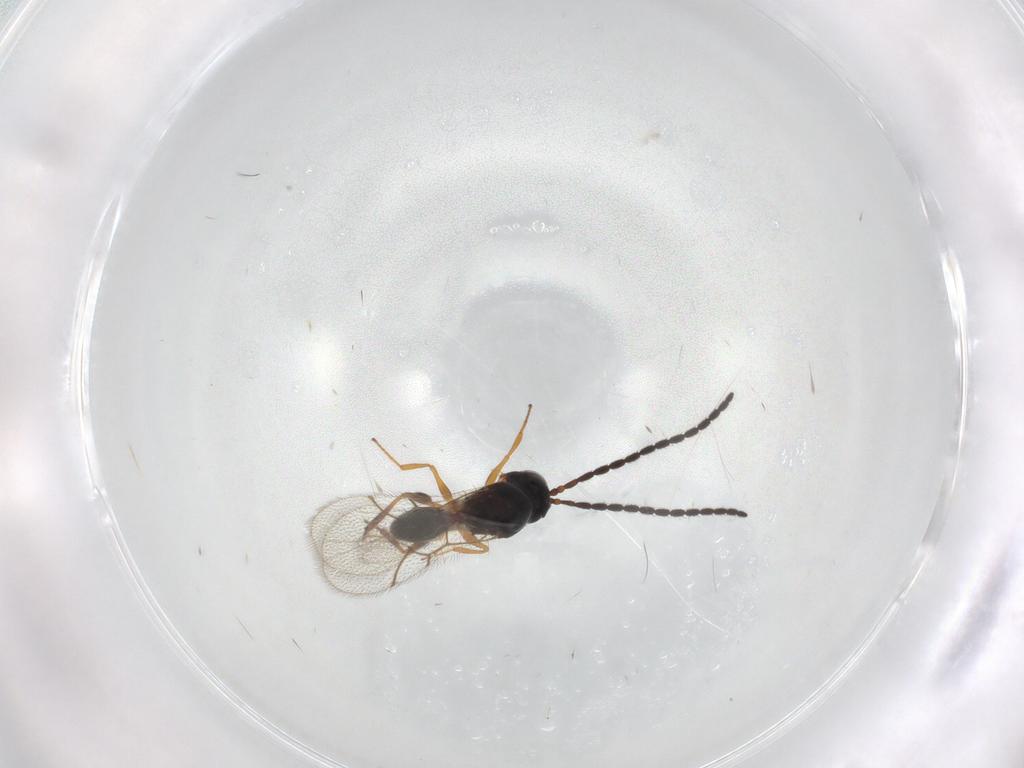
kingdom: Animalia
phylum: Arthropoda
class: Insecta
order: Hymenoptera
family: Figitidae
